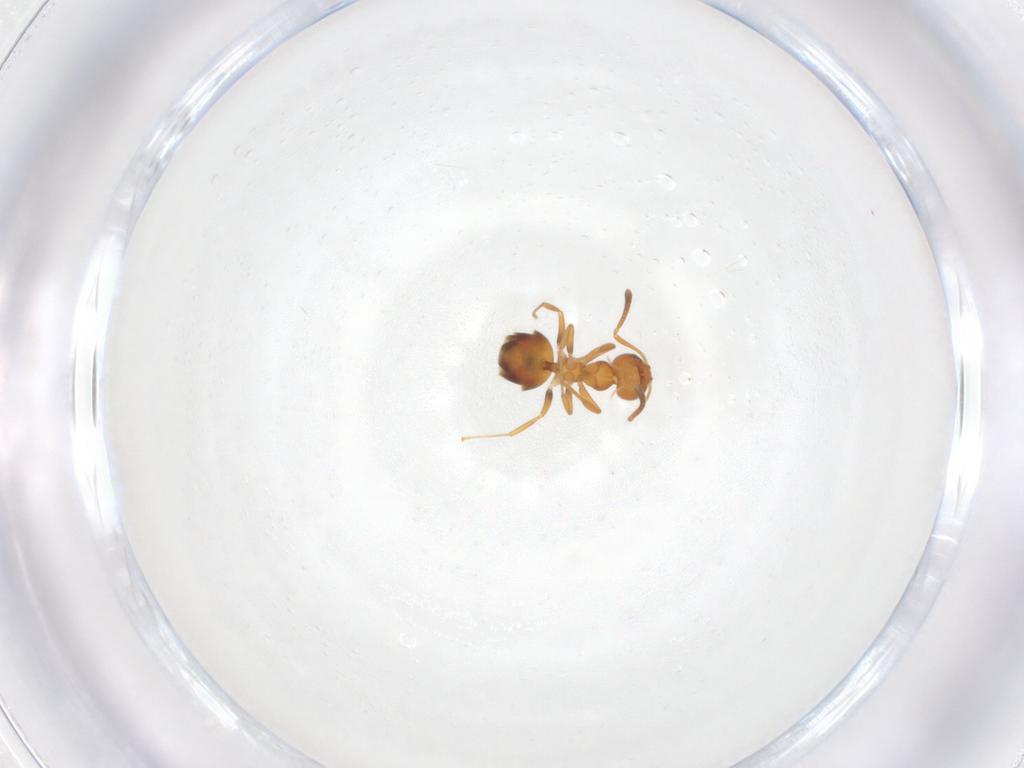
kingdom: Animalia
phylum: Arthropoda
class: Insecta
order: Hymenoptera
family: Formicidae
